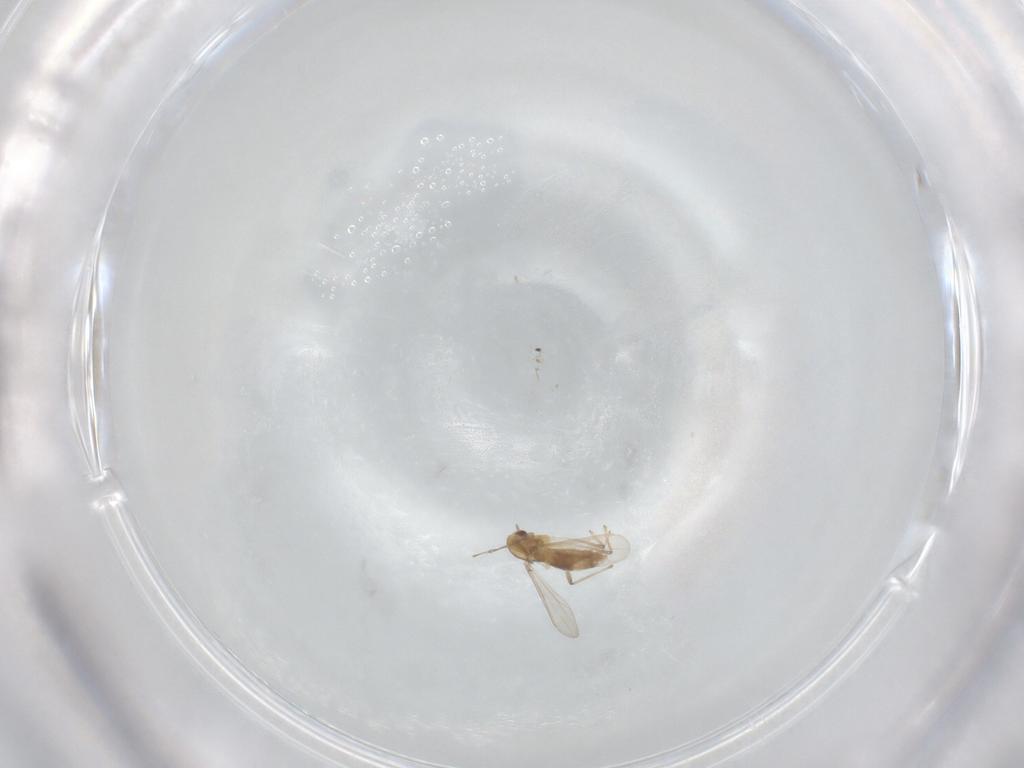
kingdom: Animalia
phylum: Arthropoda
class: Insecta
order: Diptera
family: Chironomidae
